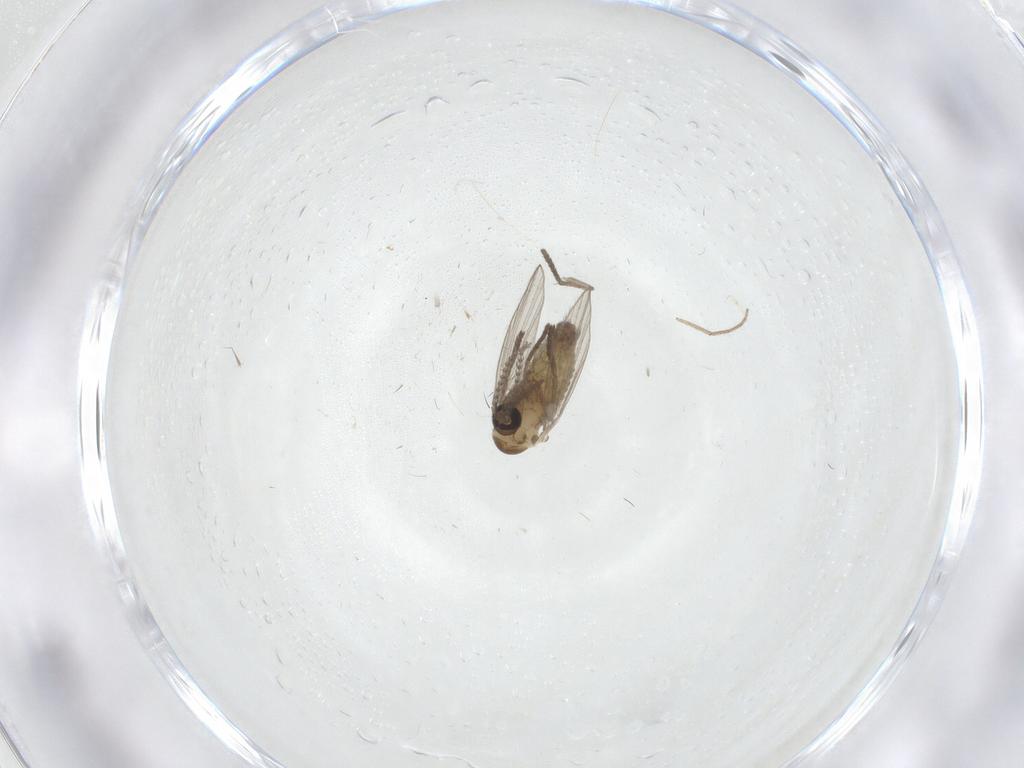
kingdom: Animalia
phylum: Arthropoda
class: Insecta
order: Diptera
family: Psychodidae
